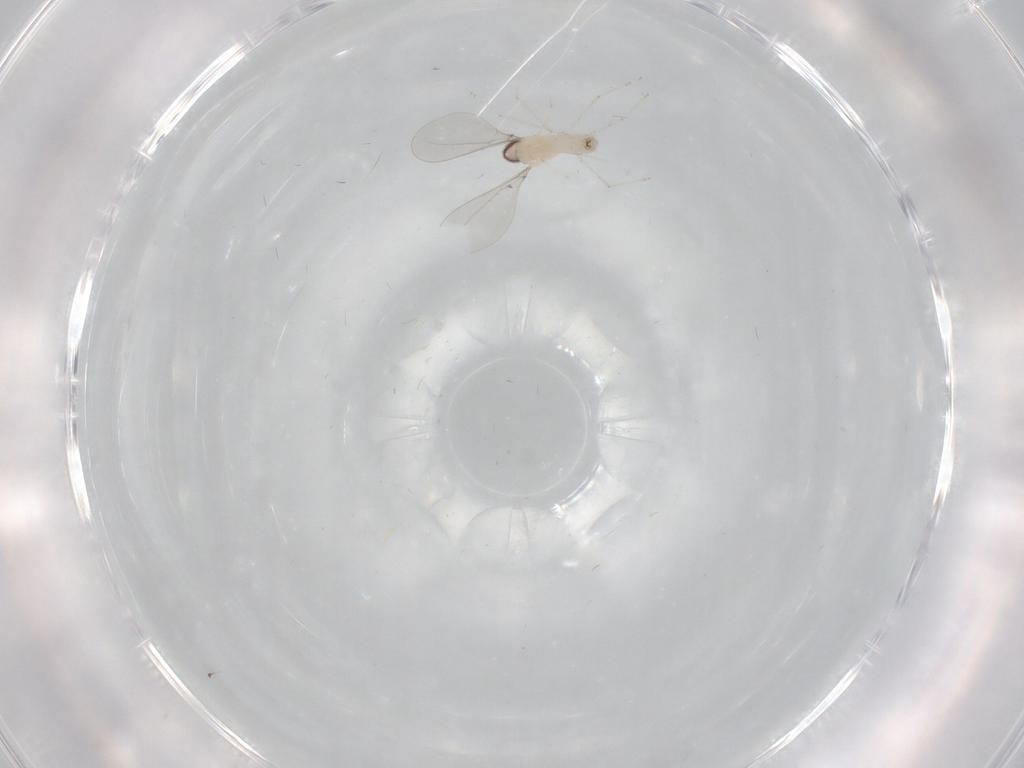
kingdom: Animalia
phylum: Arthropoda
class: Insecta
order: Diptera
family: Cecidomyiidae
